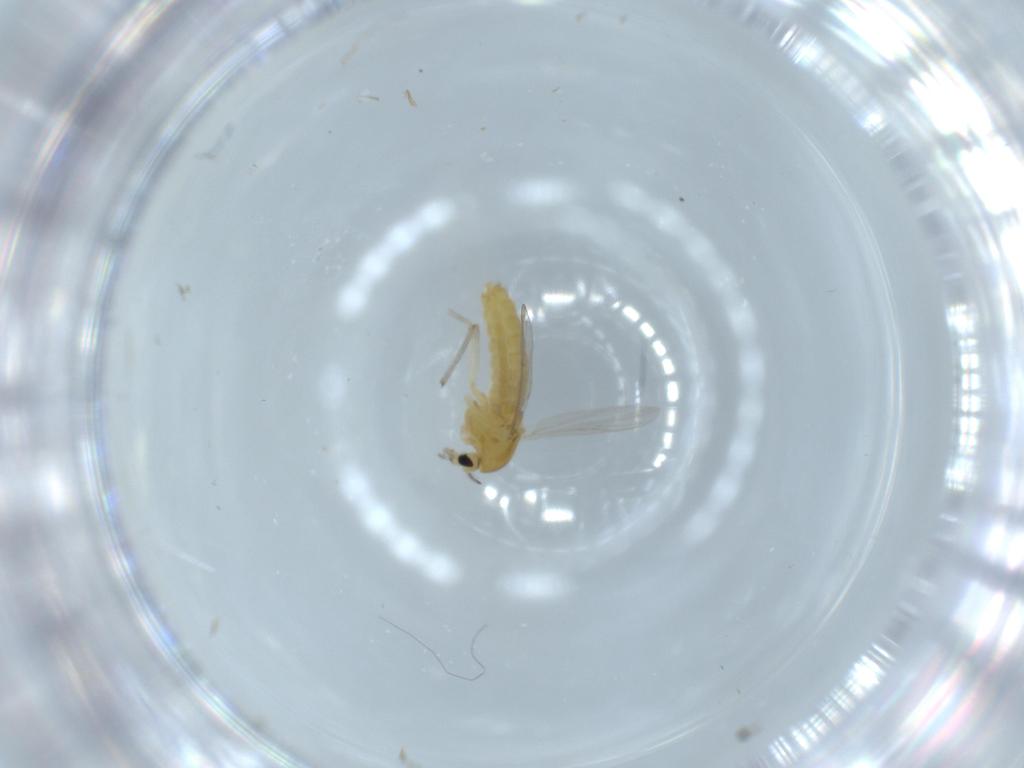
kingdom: Animalia
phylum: Arthropoda
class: Insecta
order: Diptera
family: Chironomidae
